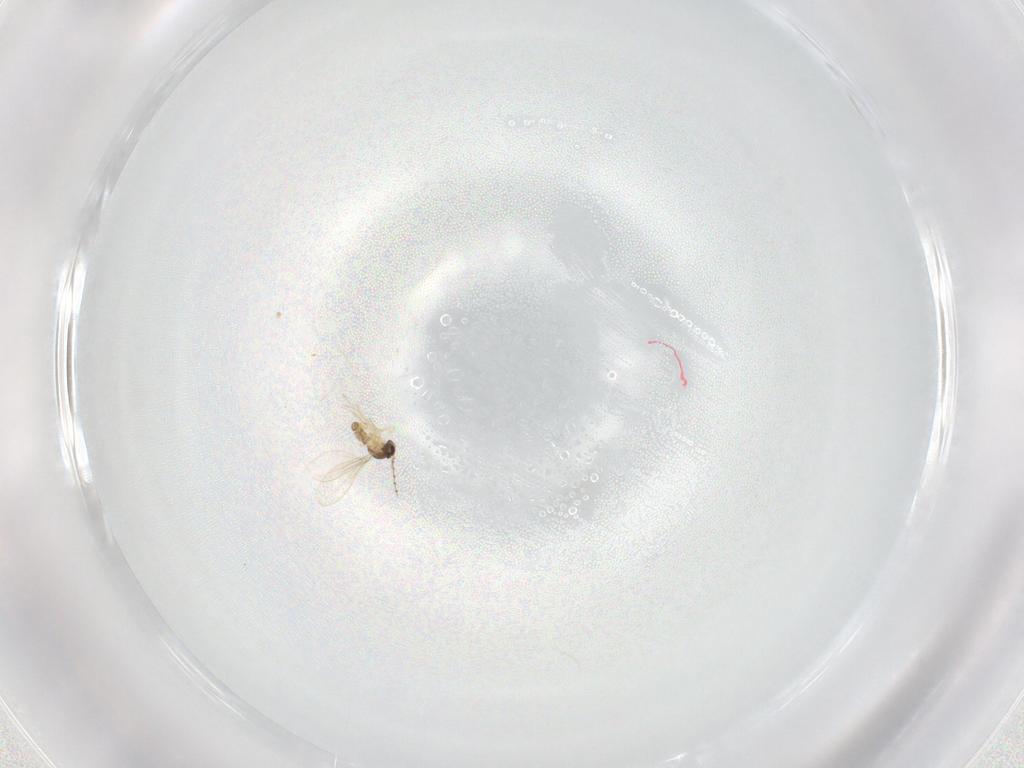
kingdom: Animalia
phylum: Arthropoda
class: Insecta
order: Diptera
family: Cecidomyiidae
